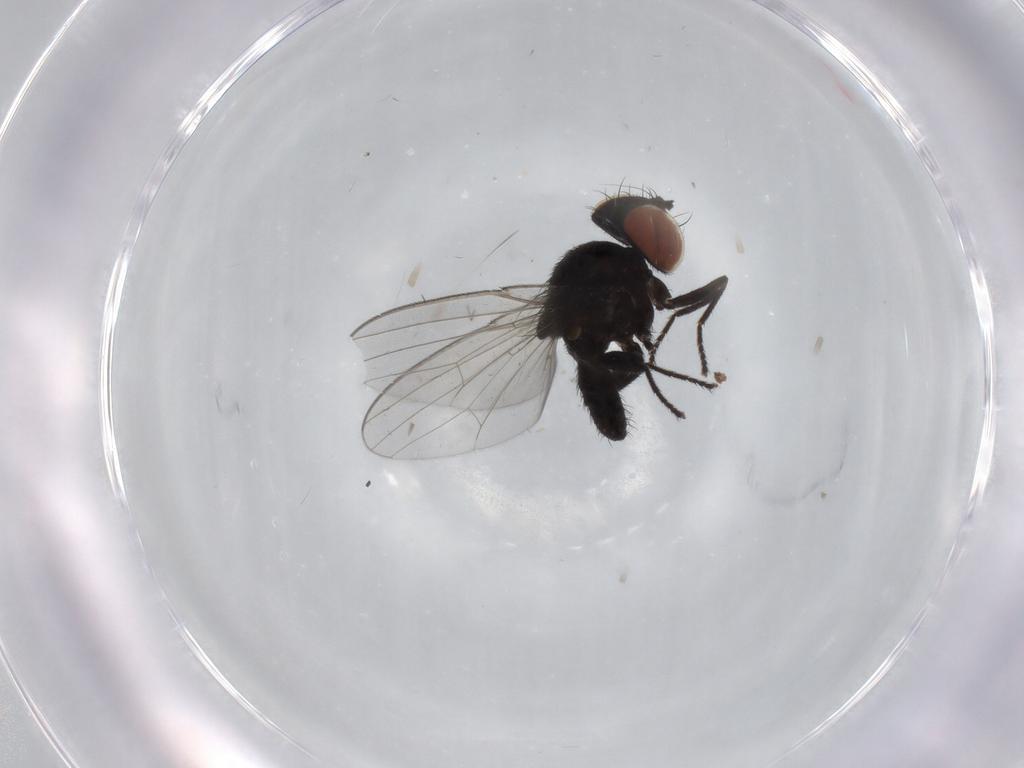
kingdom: Animalia
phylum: Arthropoda
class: Insecta
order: Diptera
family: Milichiidae
